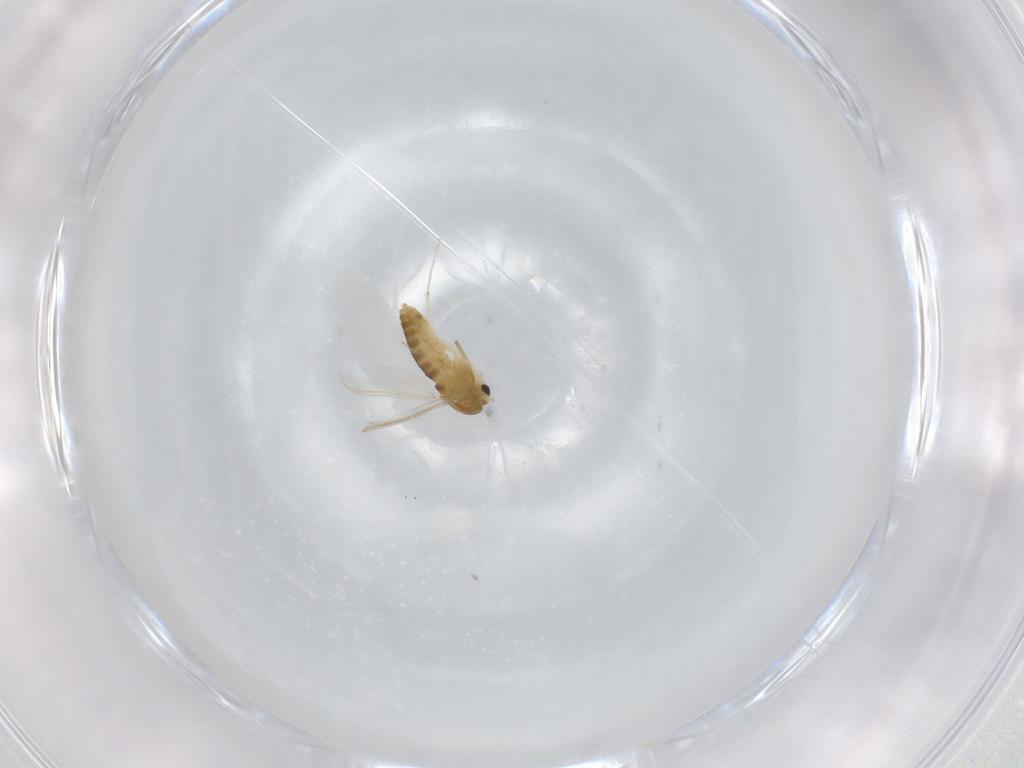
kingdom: Animalia
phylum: Arthropoda
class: Insecta
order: Diptera
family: Chironomidae
